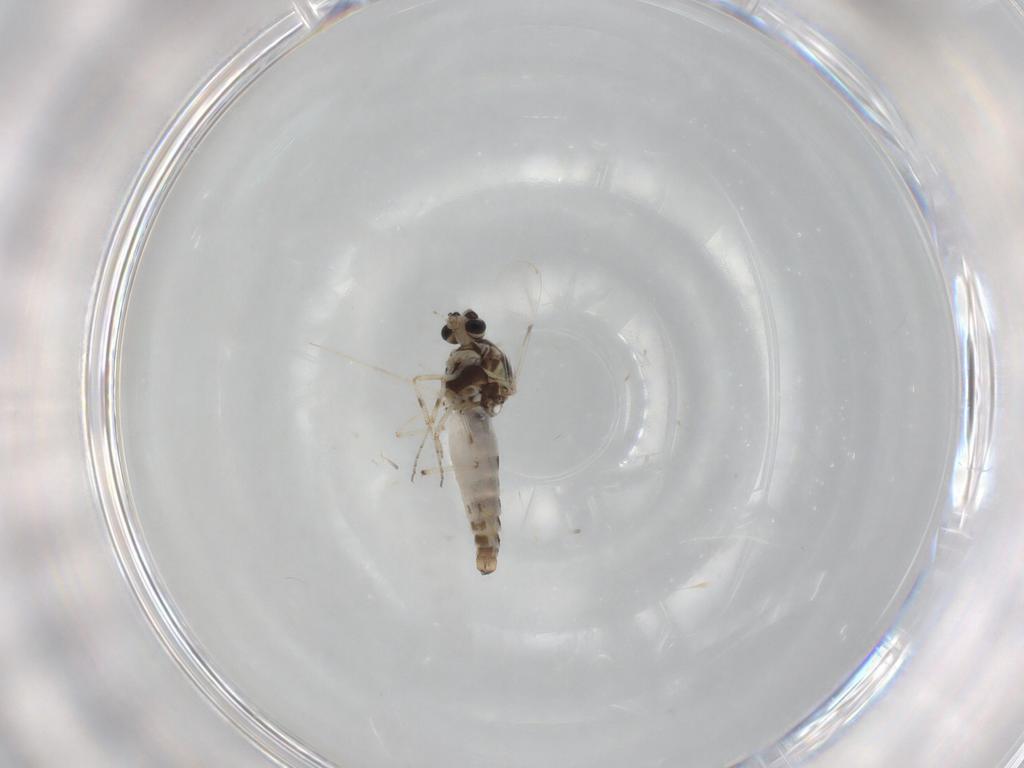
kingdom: Animalia
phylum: Arthropoda
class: Insecta
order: Diptera
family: Ceratopogonidae
